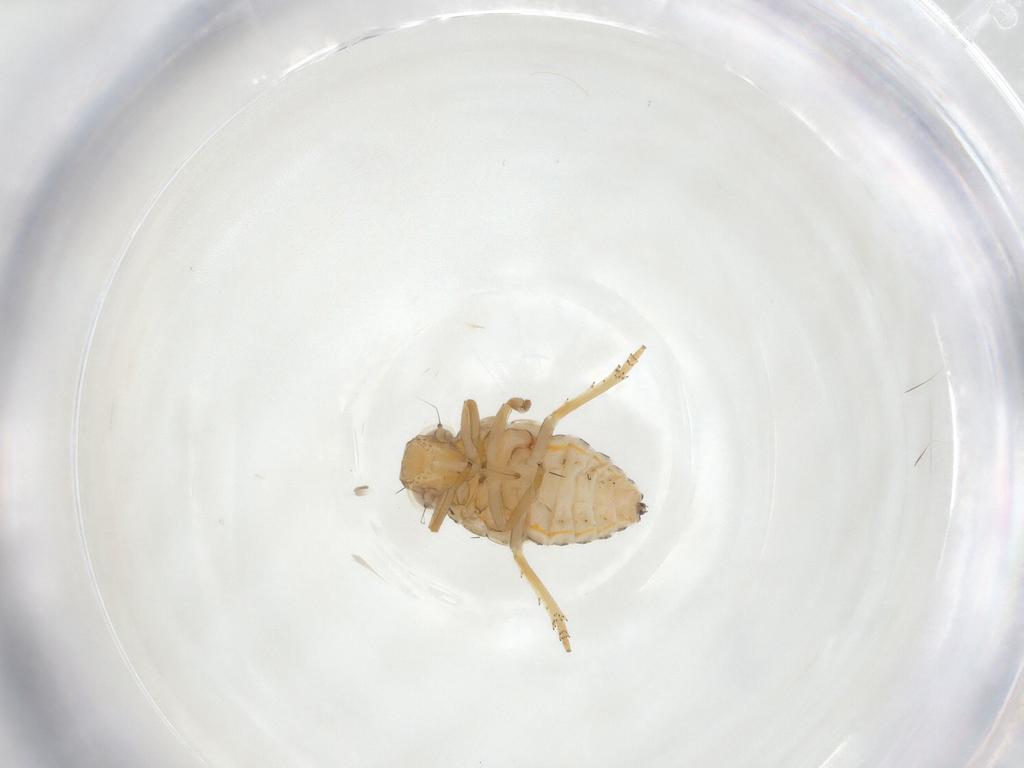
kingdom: Animalia
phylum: Arthropoda
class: Insecta
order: Hemiptera
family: Issidae
